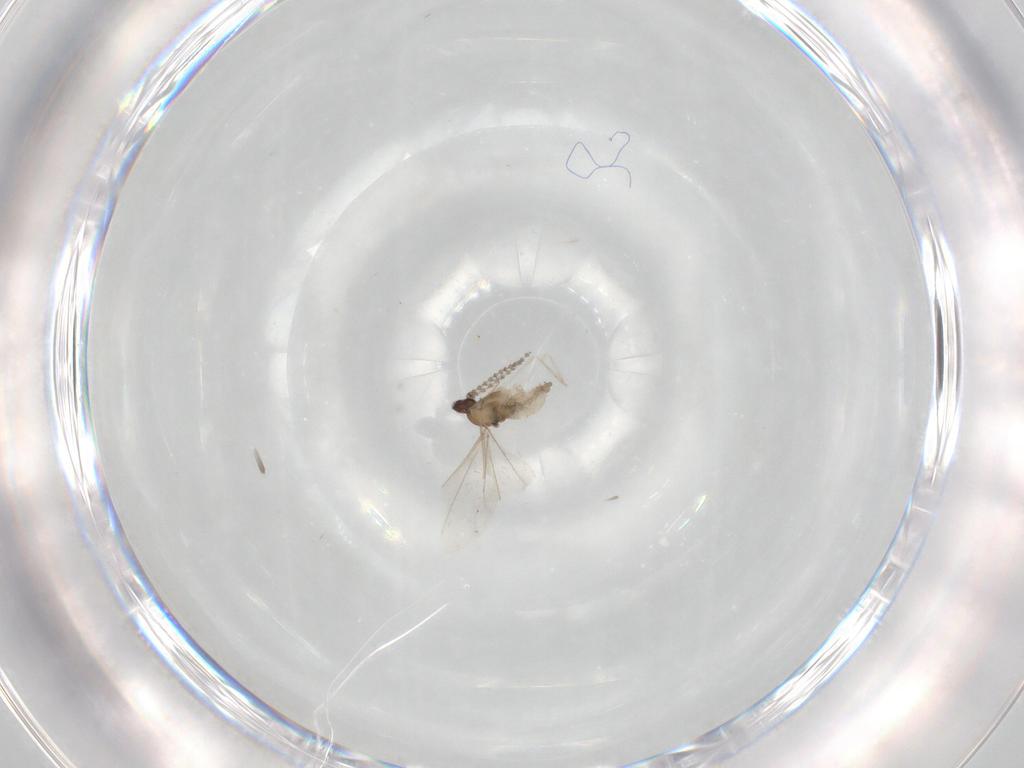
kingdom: Animalia
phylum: Arthropoda
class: Insecta
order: Diptera
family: Cecidomyiidae
